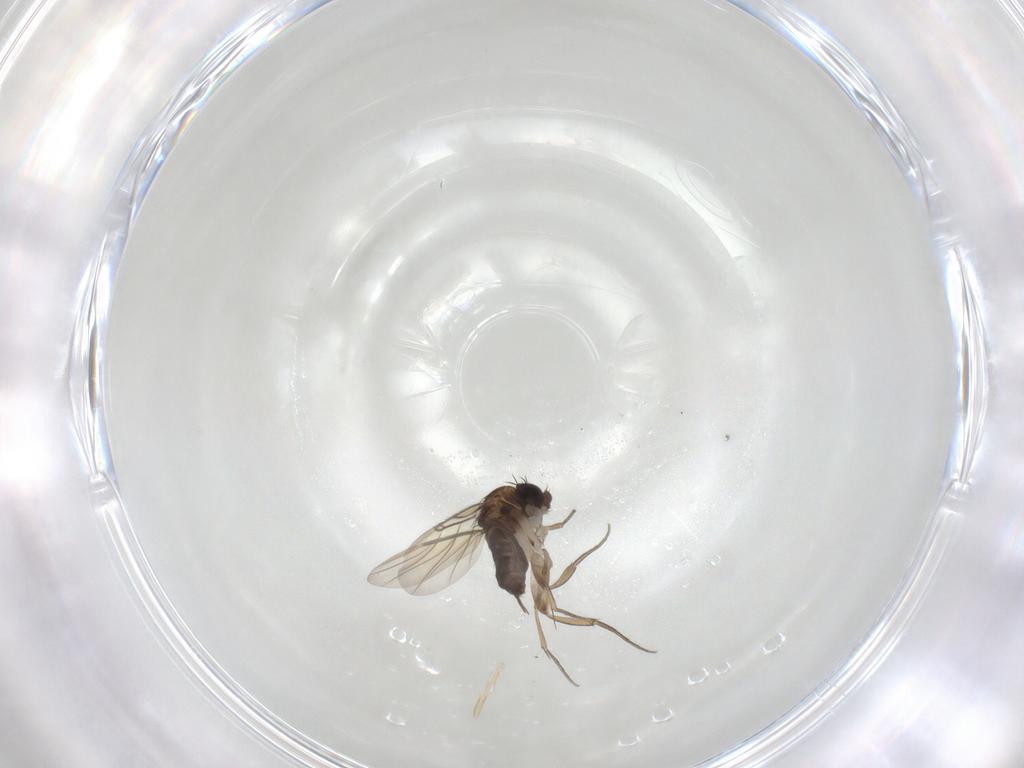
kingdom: Animalia
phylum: Arthropoda
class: Insecta
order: Diptera
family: Phoridae
